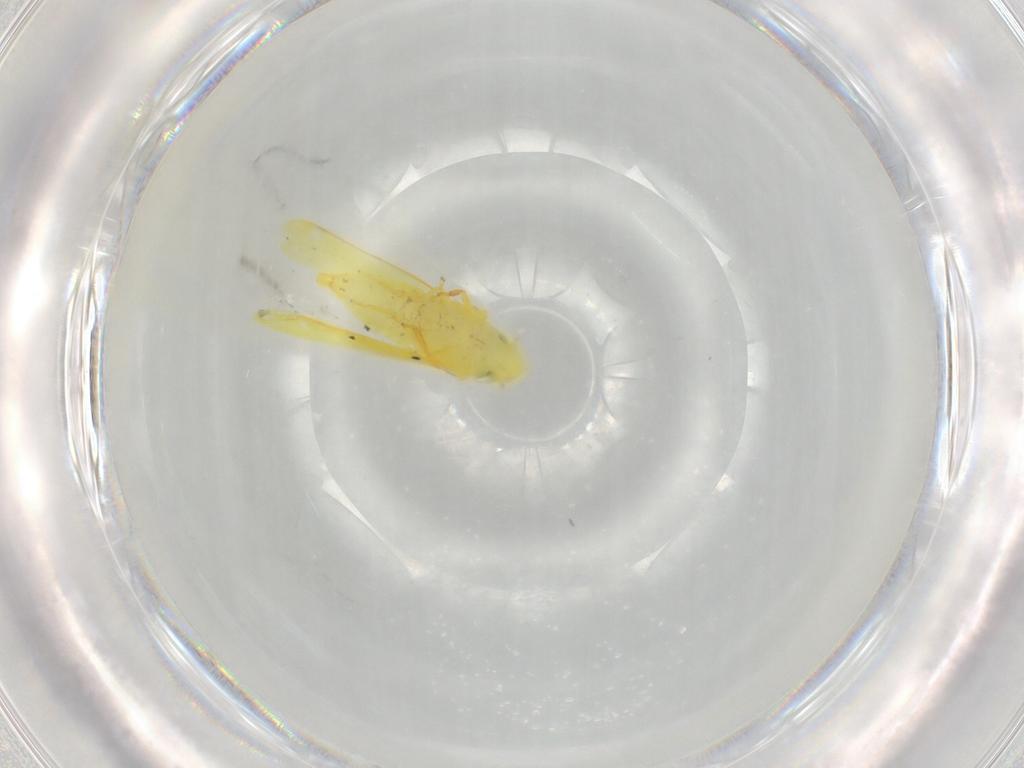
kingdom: Animalia
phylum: Arthropoda
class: Insecta
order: Hemiptera
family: Cicadellidae
